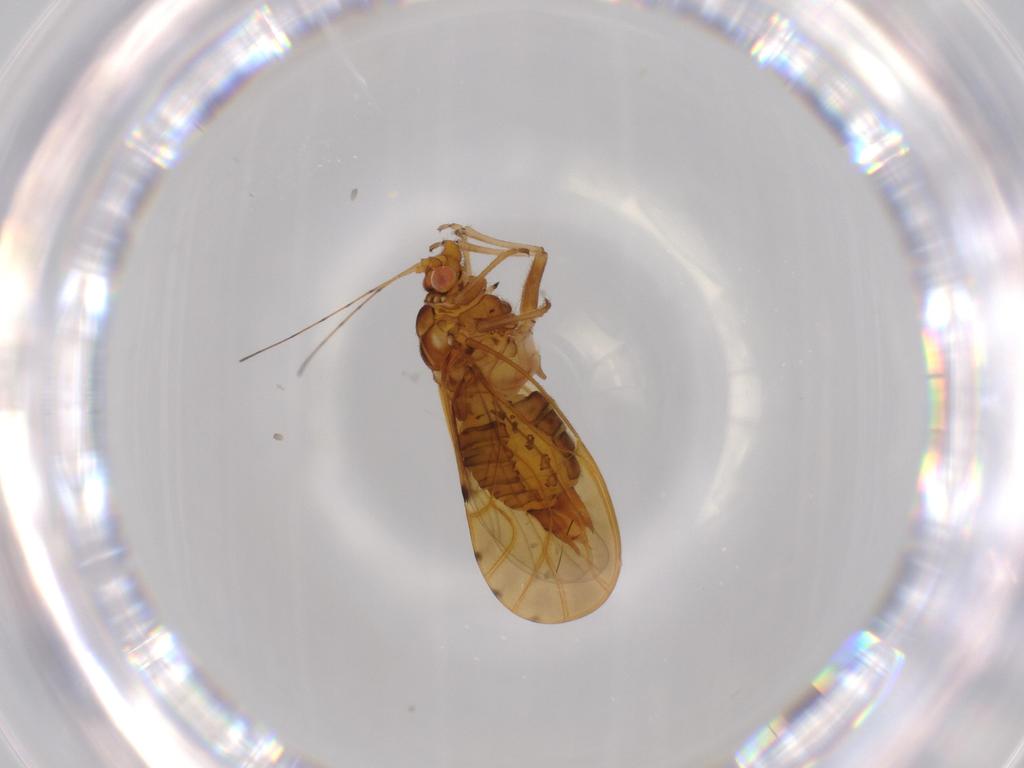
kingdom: Animalia
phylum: Arthropoda
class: Insecta
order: Hemiptera
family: Psylloidea_incertae_sedis
